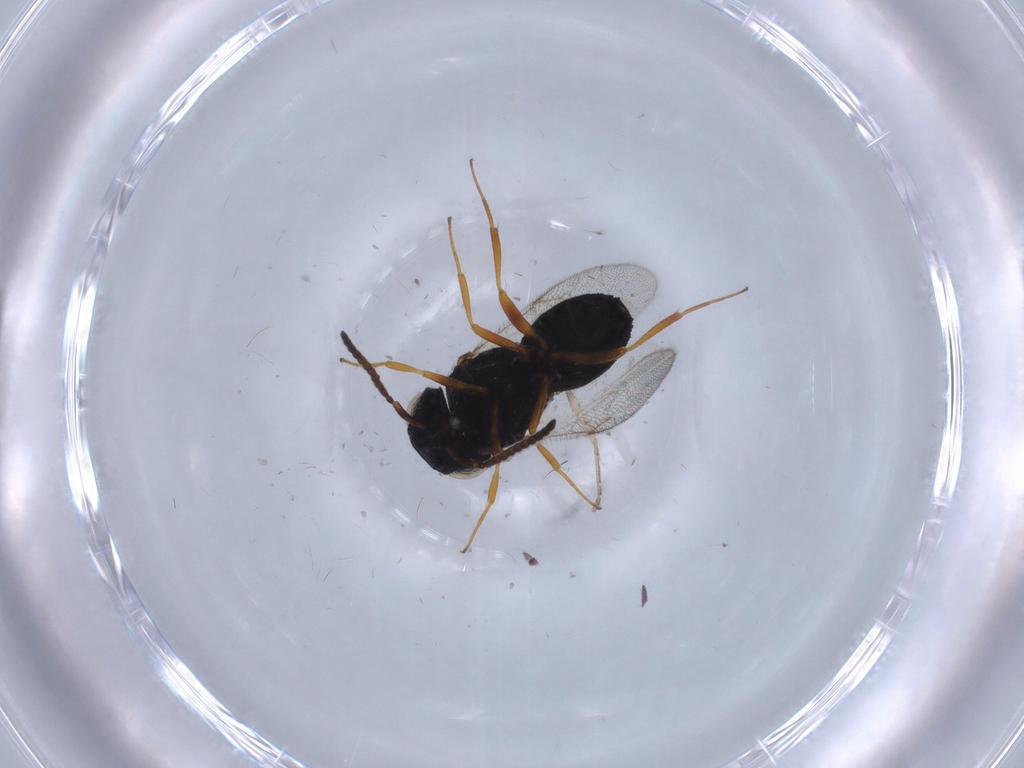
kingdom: Animalia
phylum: Arthropoda
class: Insecta
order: Hymenoptera
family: Scelionidae
